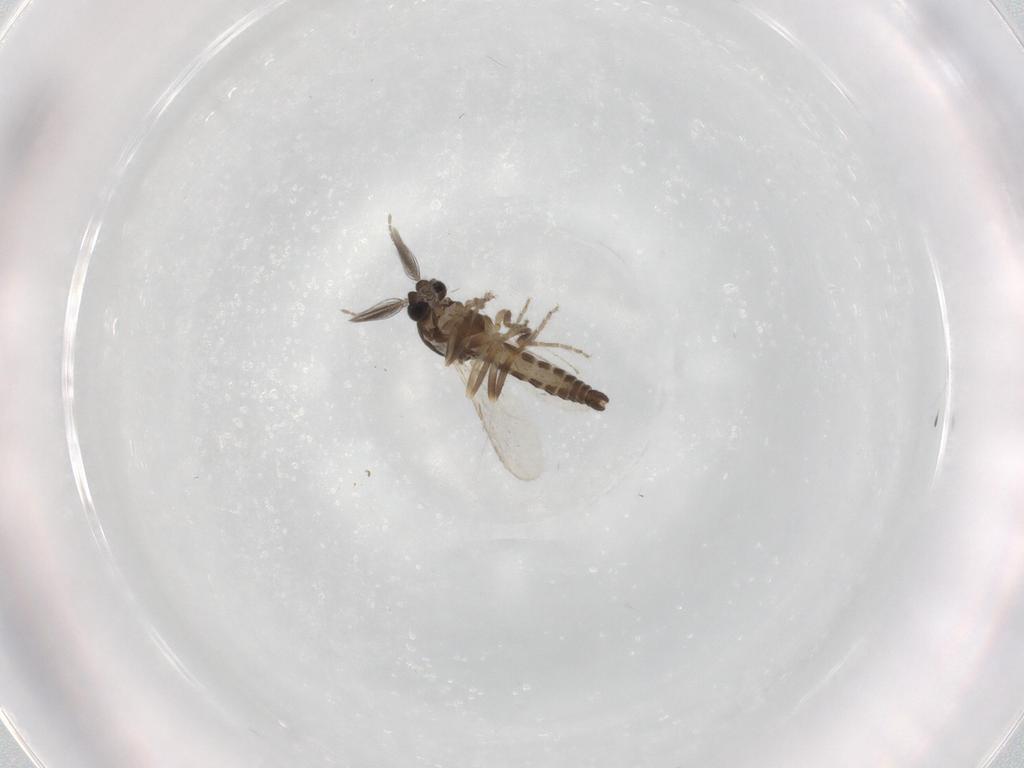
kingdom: Animalia
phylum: Arthropoda
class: Insecta
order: Diptera
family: Ceratopogonidae
